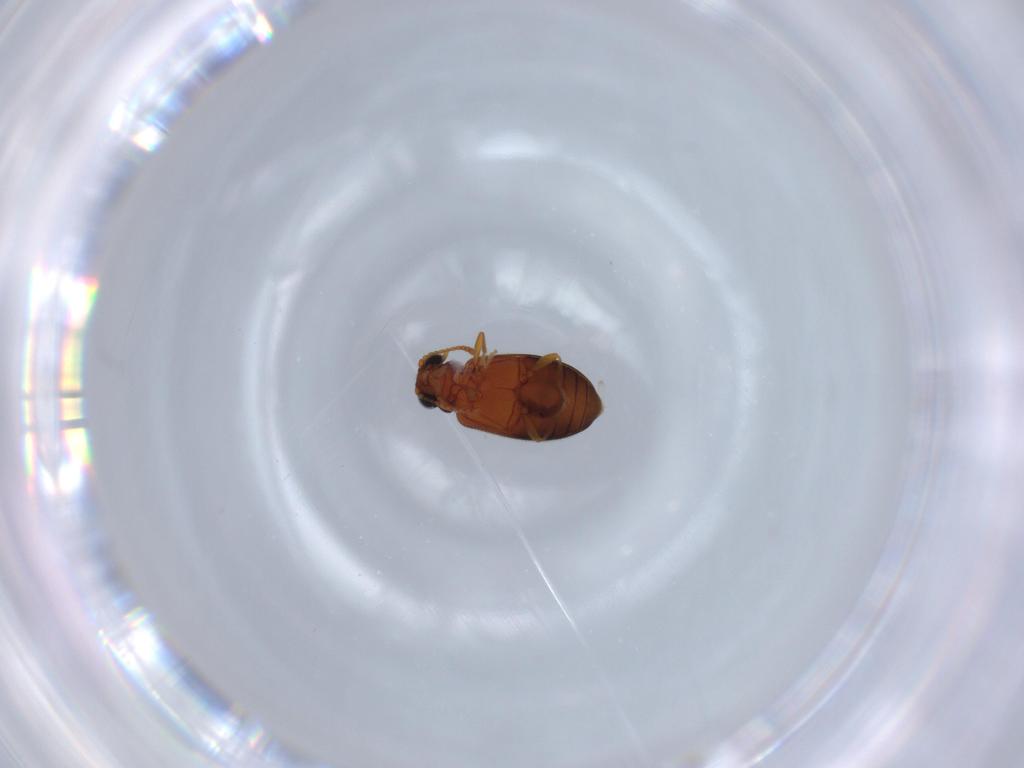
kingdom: Animalia
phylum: Arthropoda
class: Insecta
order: Coleoptera
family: Aderidae
